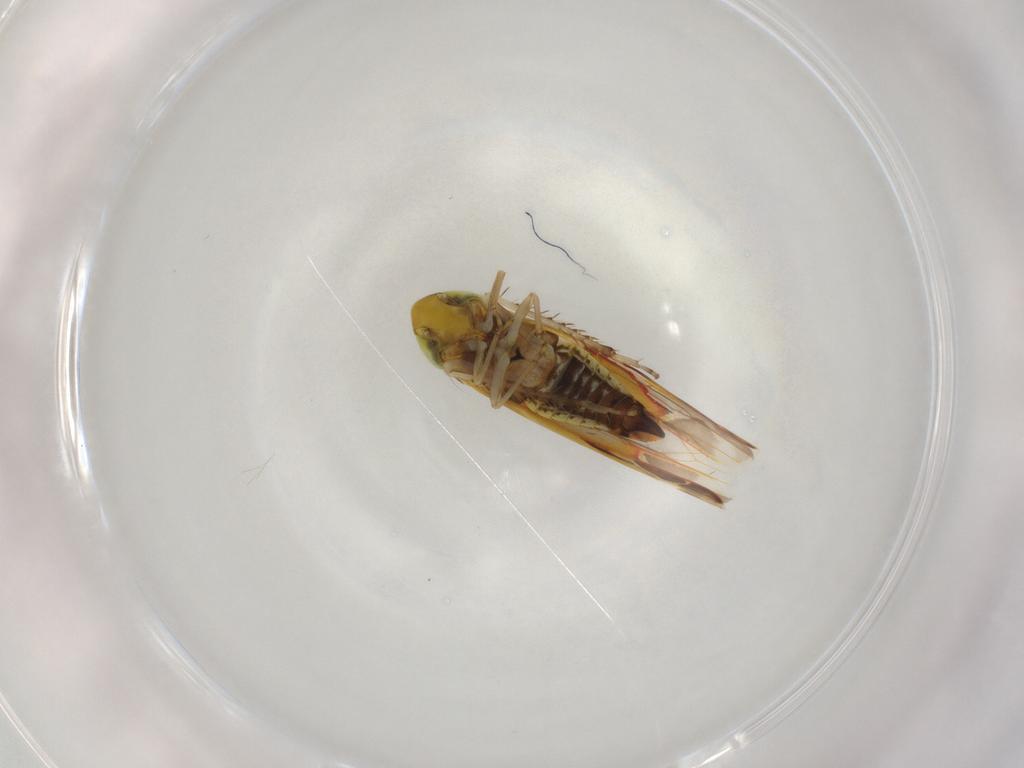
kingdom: Animalia
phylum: Arthropoda
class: Insecta
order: Hemiptera
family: Cicadellidae
